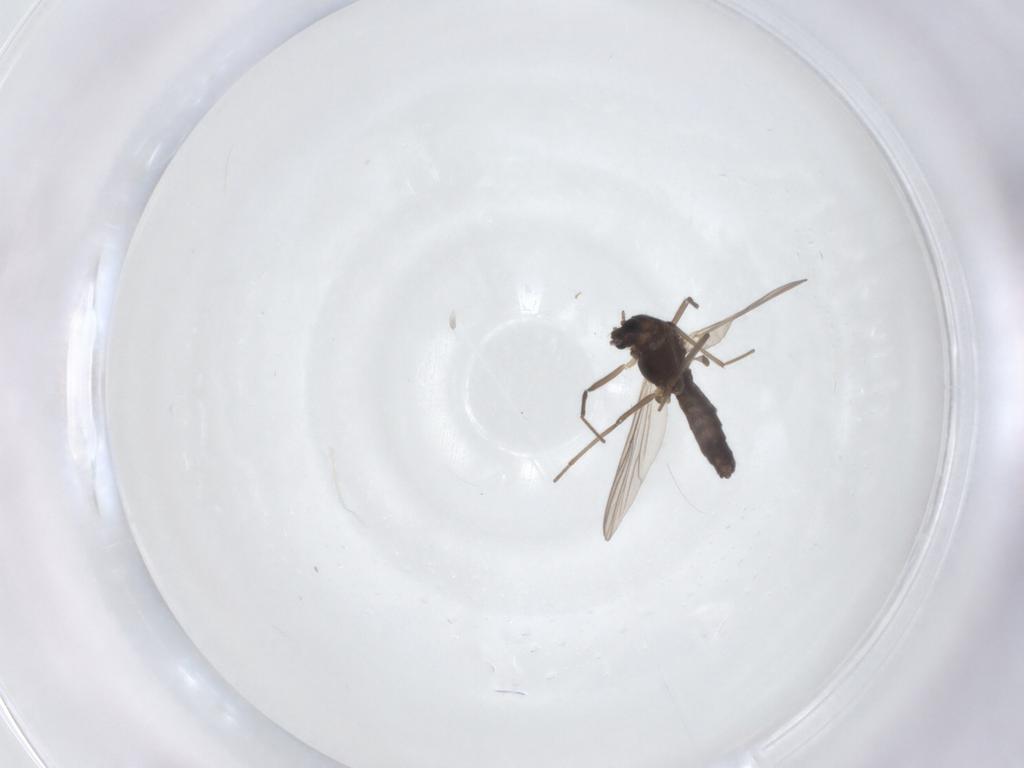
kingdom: Animalia
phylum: Arthropoda
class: Insecta
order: Diptera
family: Chironomidae
